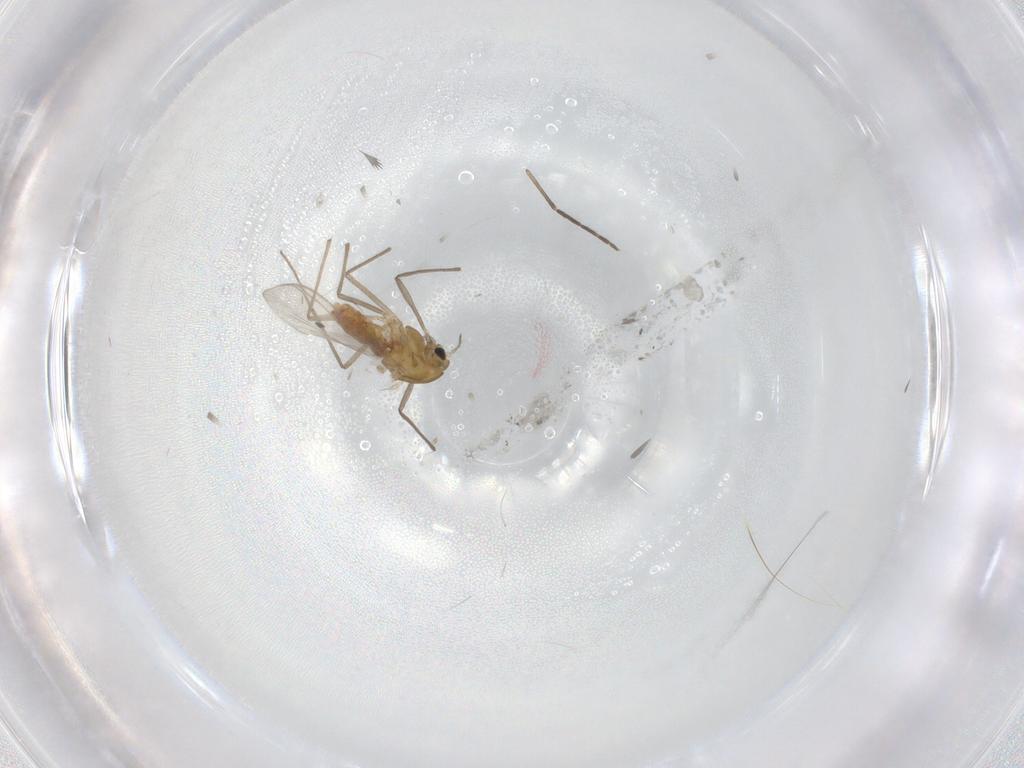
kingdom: Animalia
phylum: Arthropoda
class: Insecta
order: Diptera
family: Chironomidae
